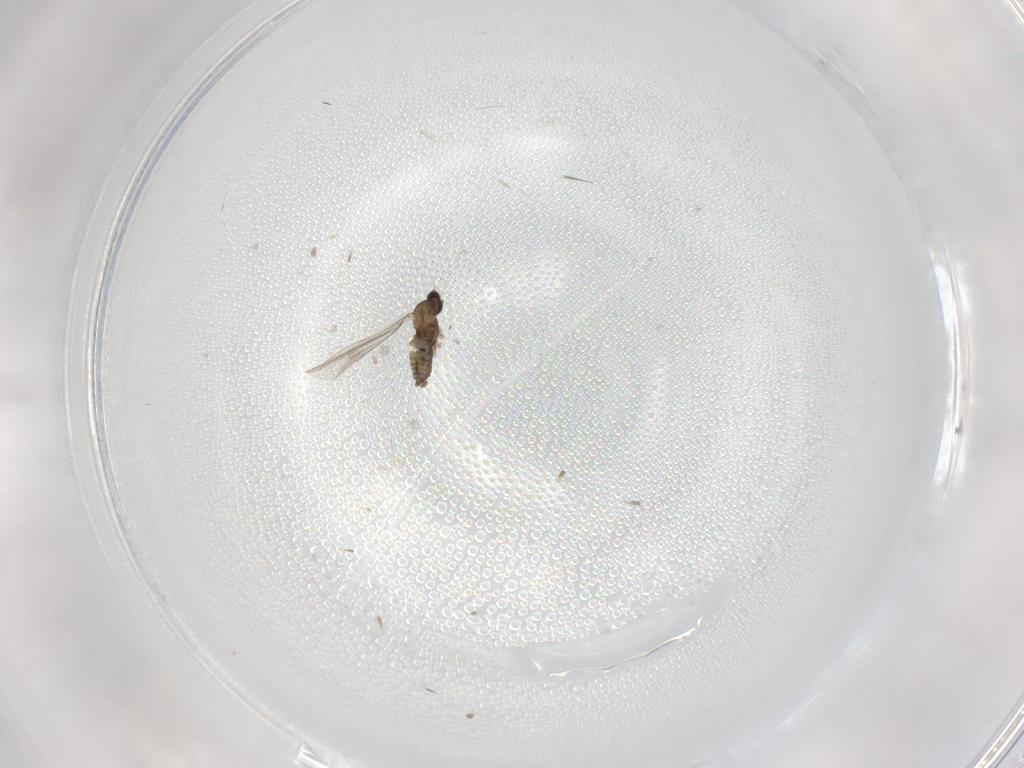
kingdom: Animalia
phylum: Arthropoda
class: Insecta
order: Diptera
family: Cecidomyiidae
